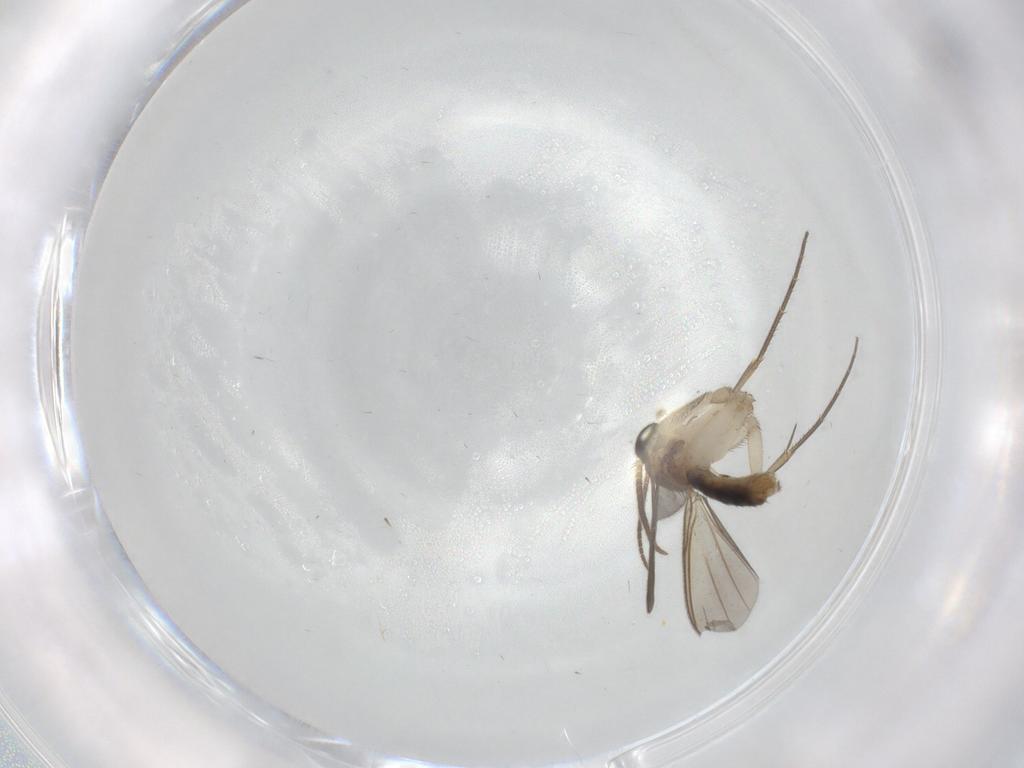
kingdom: Animalia
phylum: Arthropoda
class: Insecta
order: Diptera
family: Mycetophilidae
